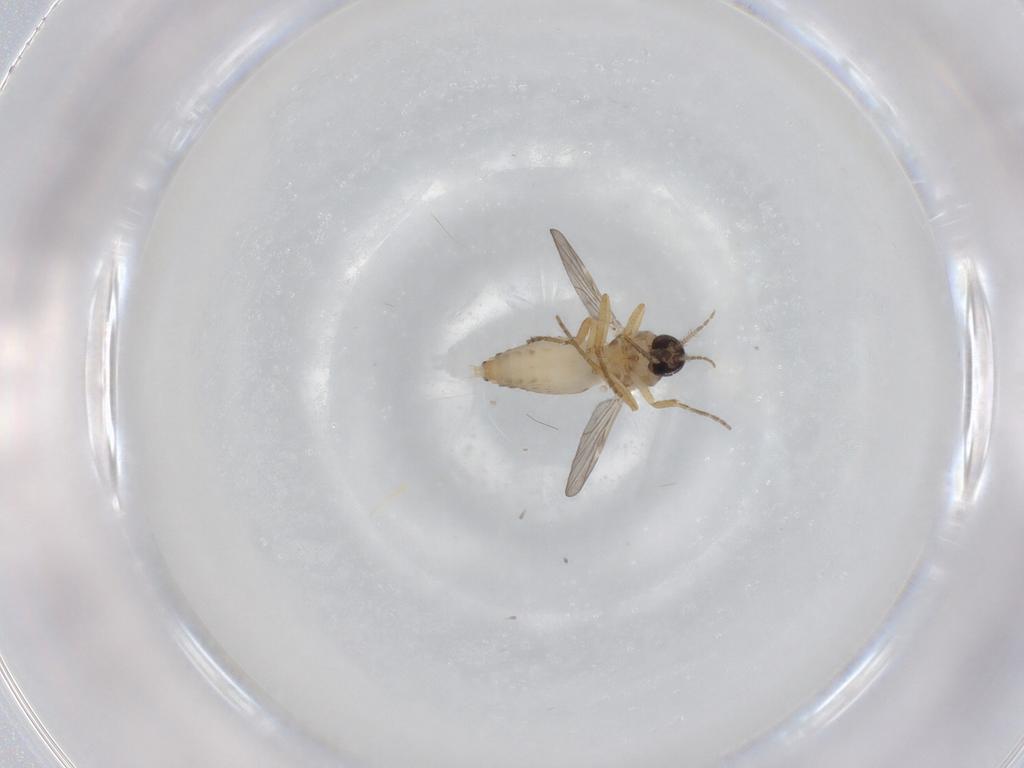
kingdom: Animalia
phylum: Arthropoda
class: Insecta
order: Diptera
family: Ceratopogonidae
